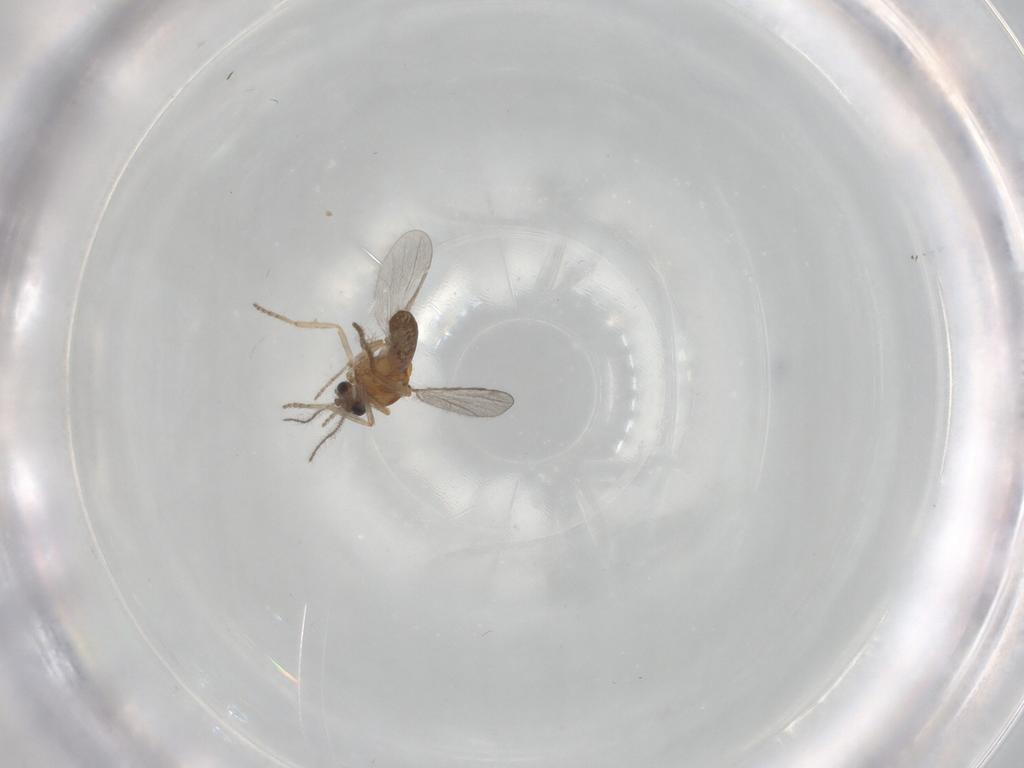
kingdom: Animalia
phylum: Arthropoda
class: Insecta
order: Diptera
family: Ceratopogonidae
